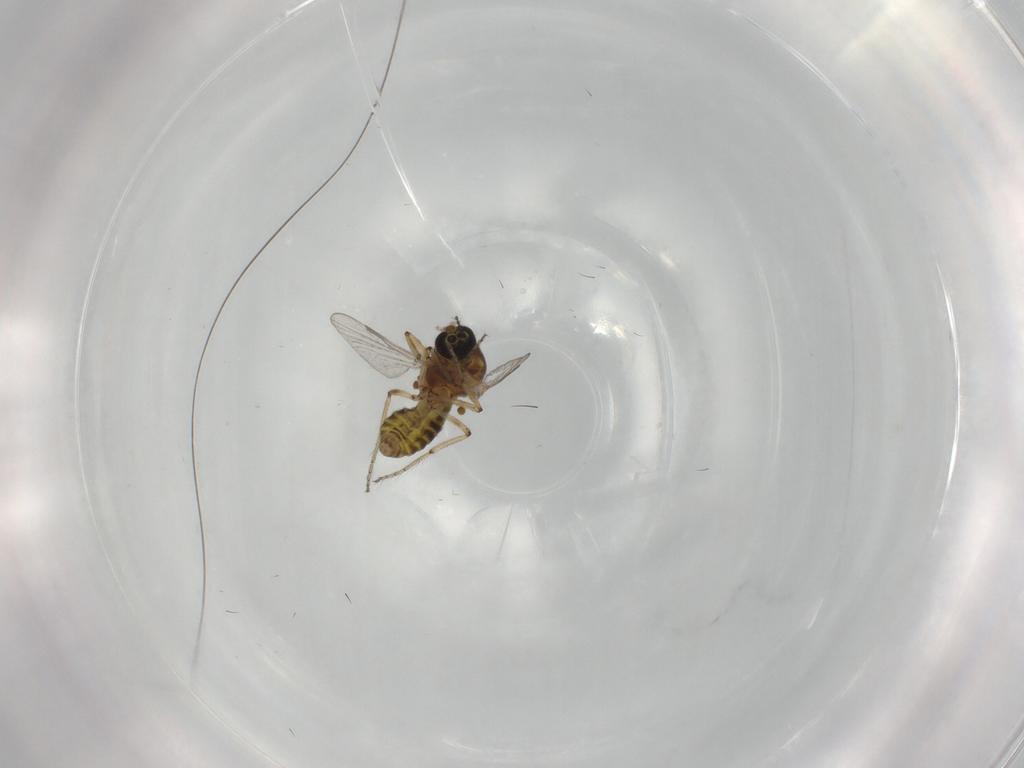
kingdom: Animalia
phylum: Arthropoda
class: Insecta
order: Diptera
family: Ceratopogonidae
